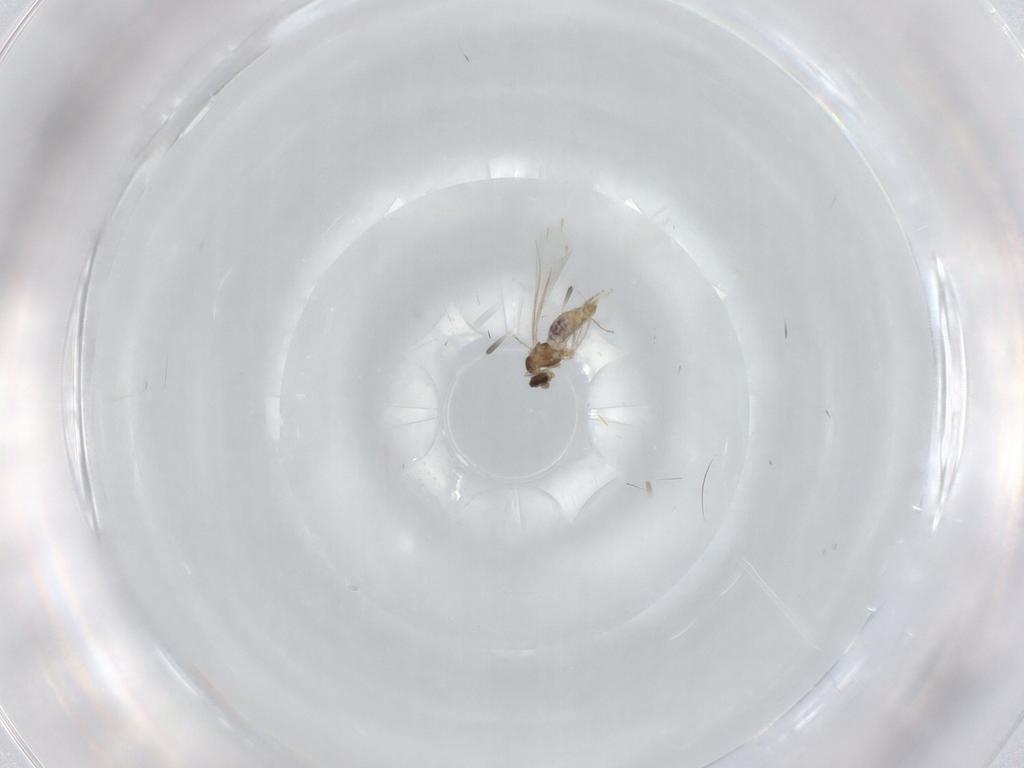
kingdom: Animalia
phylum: Arthropoda
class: Insecta
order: Diptera
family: Cecidomyiidae
